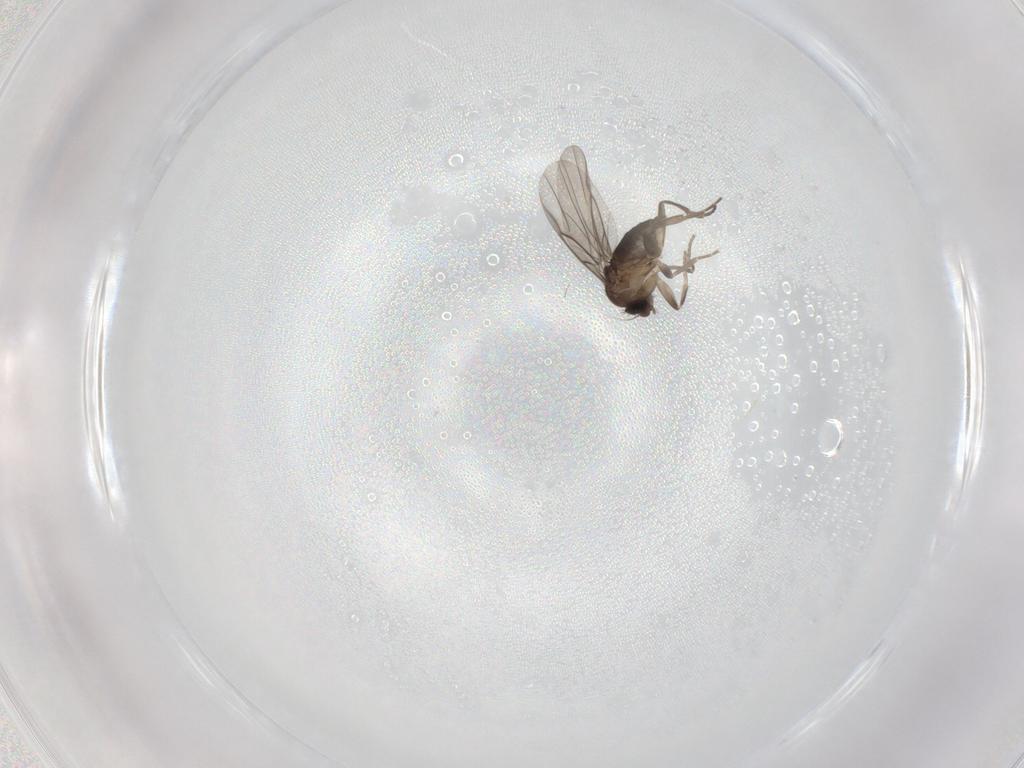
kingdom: Animalia
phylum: Arthropoda
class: Insecta
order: Diptera
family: Phoridae
